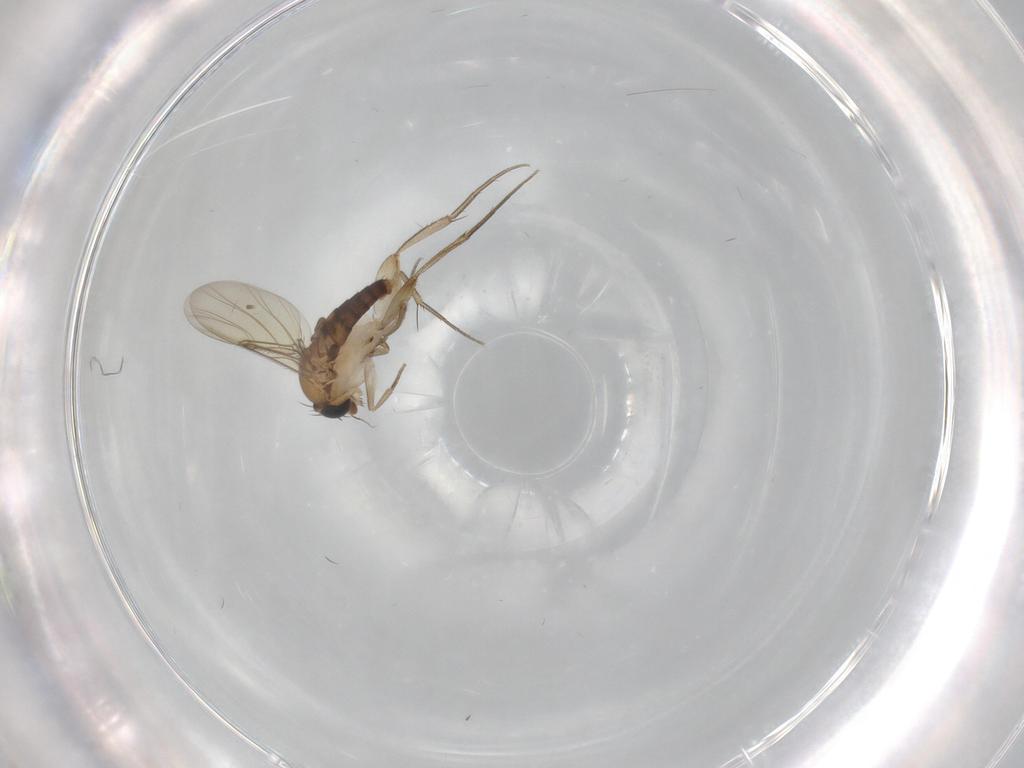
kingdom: Animalia
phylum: Arthropoda
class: Insecta
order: Diptera
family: Phoridae
